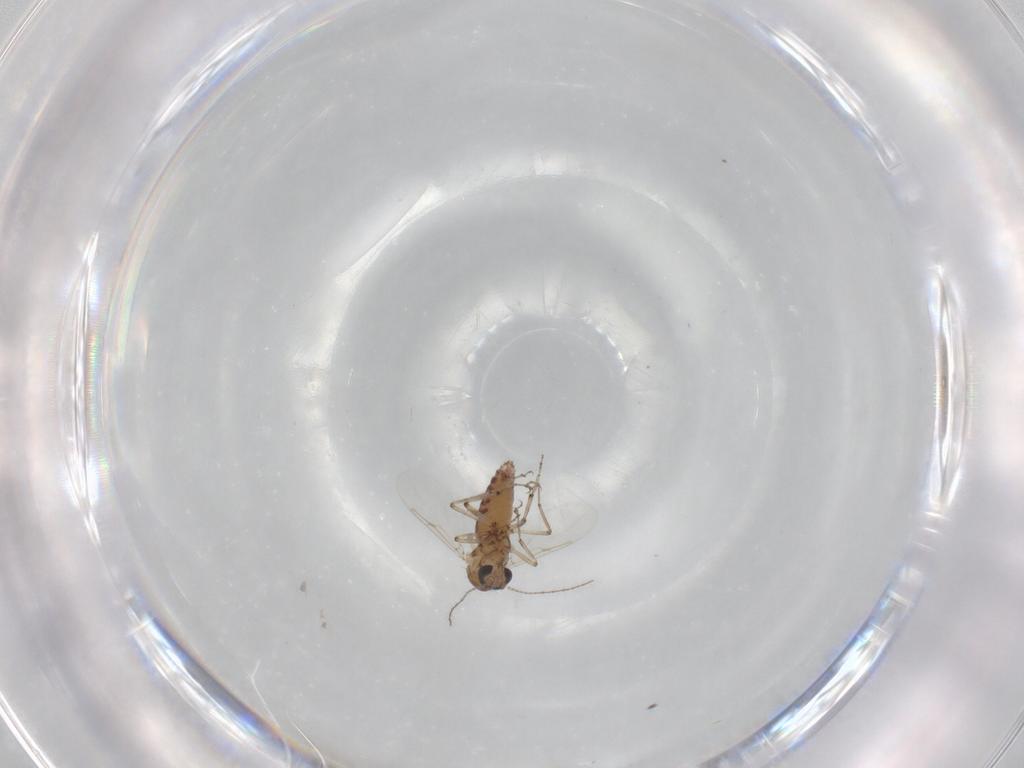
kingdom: Animalia
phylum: Arthropoda
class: Insecta
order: Diptera
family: Ceratopogonidae
